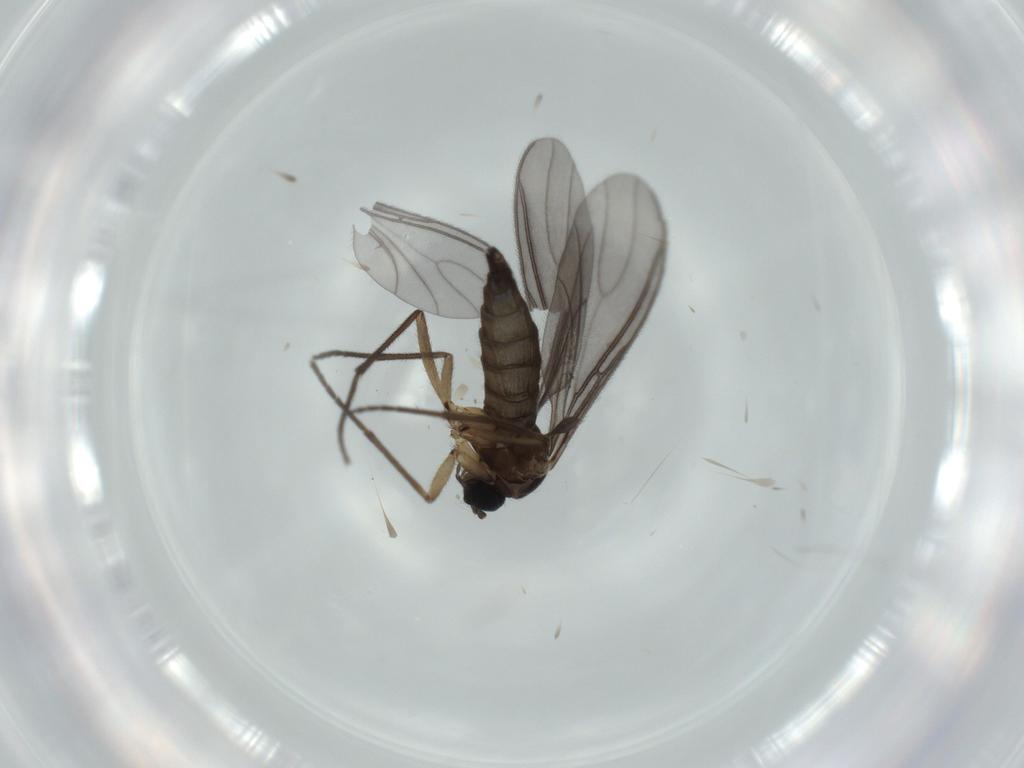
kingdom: Animalia
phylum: Arthropoda
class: Insecta
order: Diptera
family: Sciaridae
